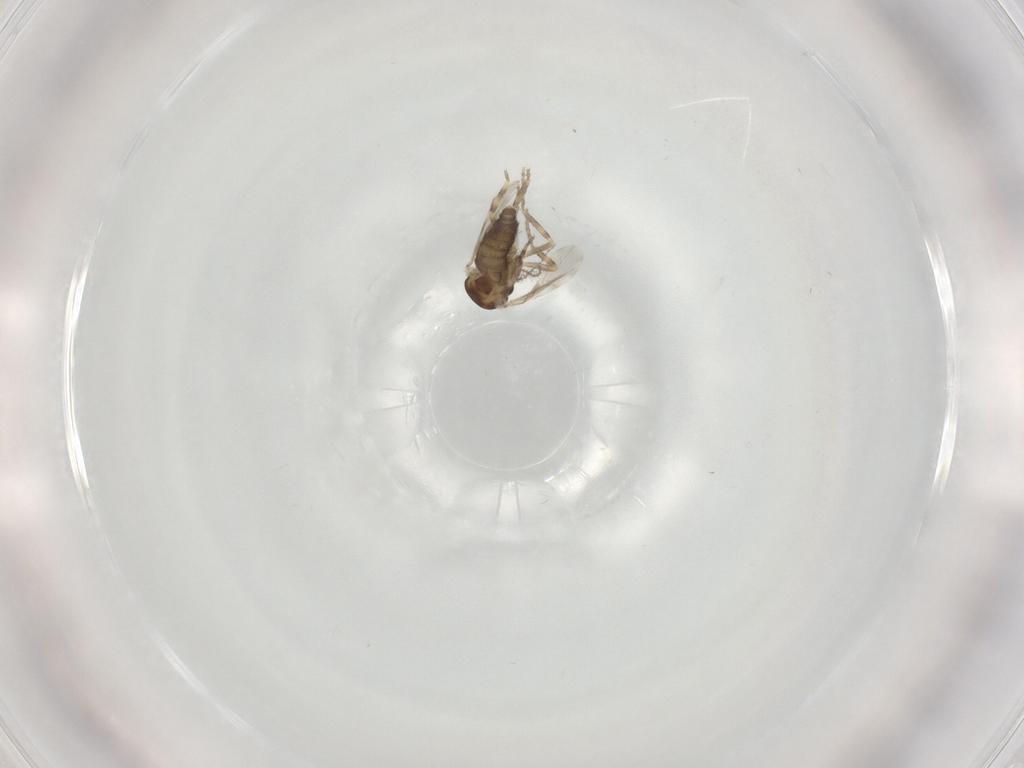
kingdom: Animalia
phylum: Arthropoda
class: Insecta
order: Diptera
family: Ceratopogonidae
